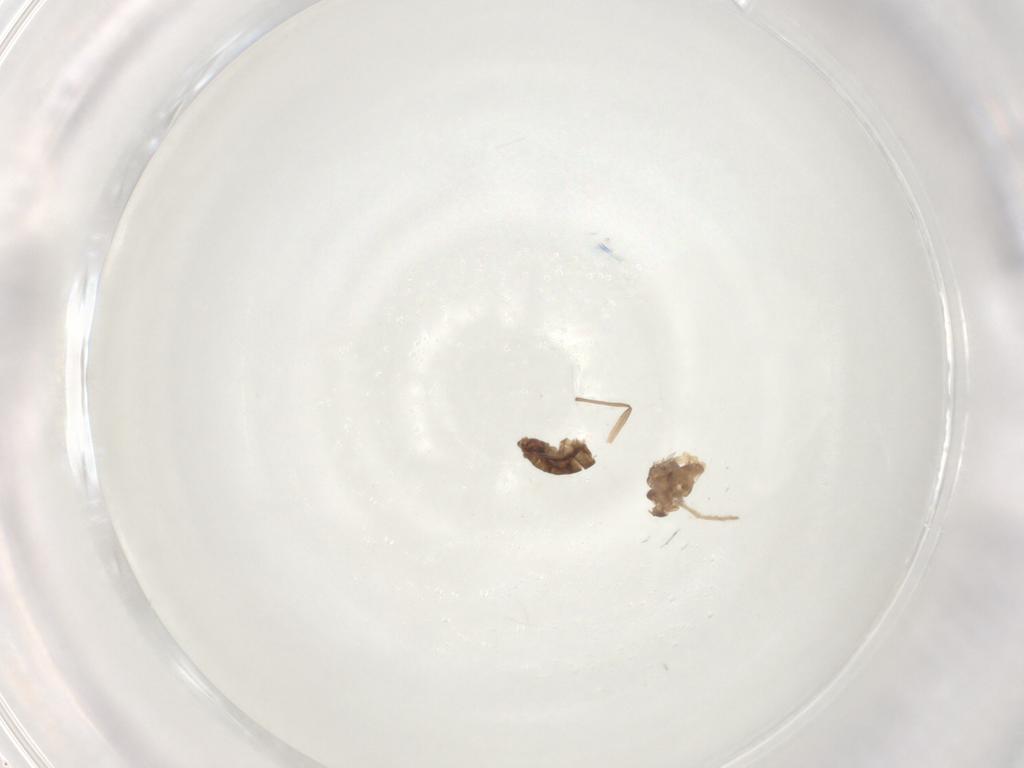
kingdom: Animalia
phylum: Arthropoda
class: Insecta
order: Diptera
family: Chironomidae
